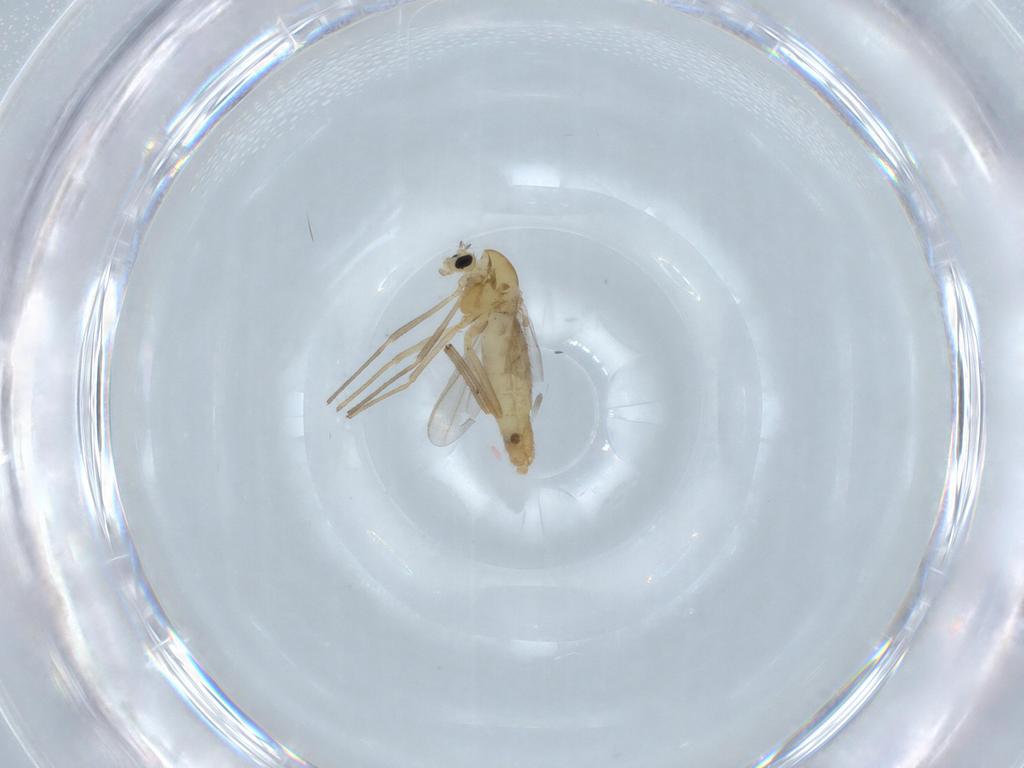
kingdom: Animalia
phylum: Arthropoda
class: Insecta
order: Diptera
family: Chironomidae
